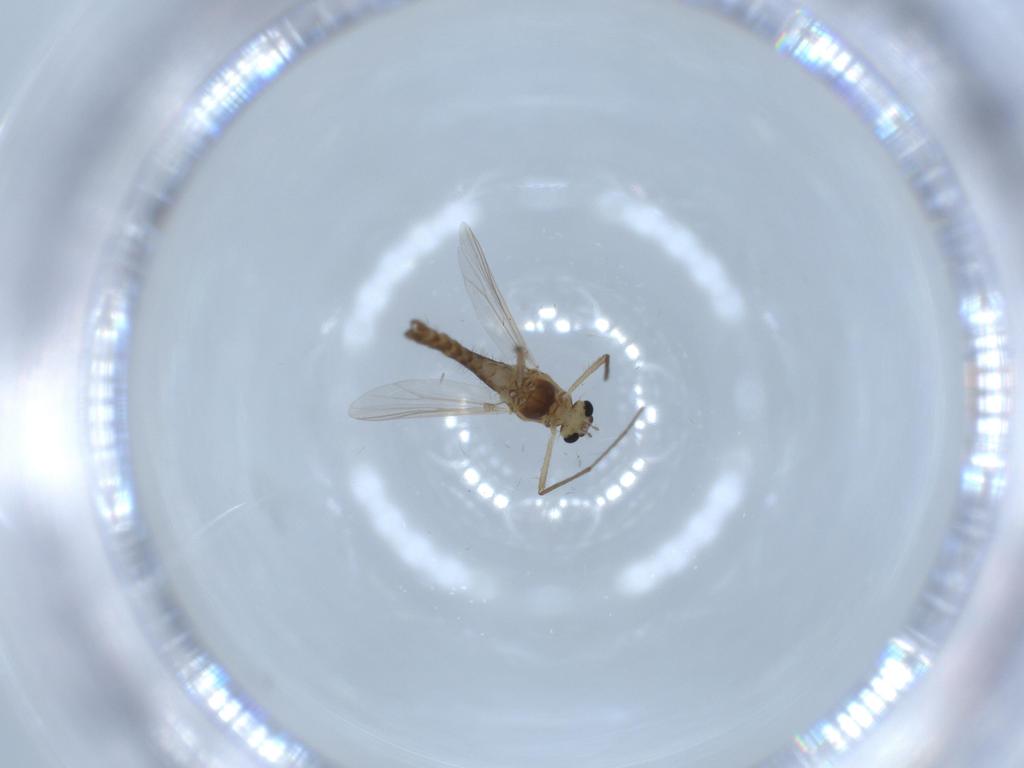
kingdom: Animalia
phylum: Arthropoda
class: Insecta
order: Diptera
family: Chironomidae
